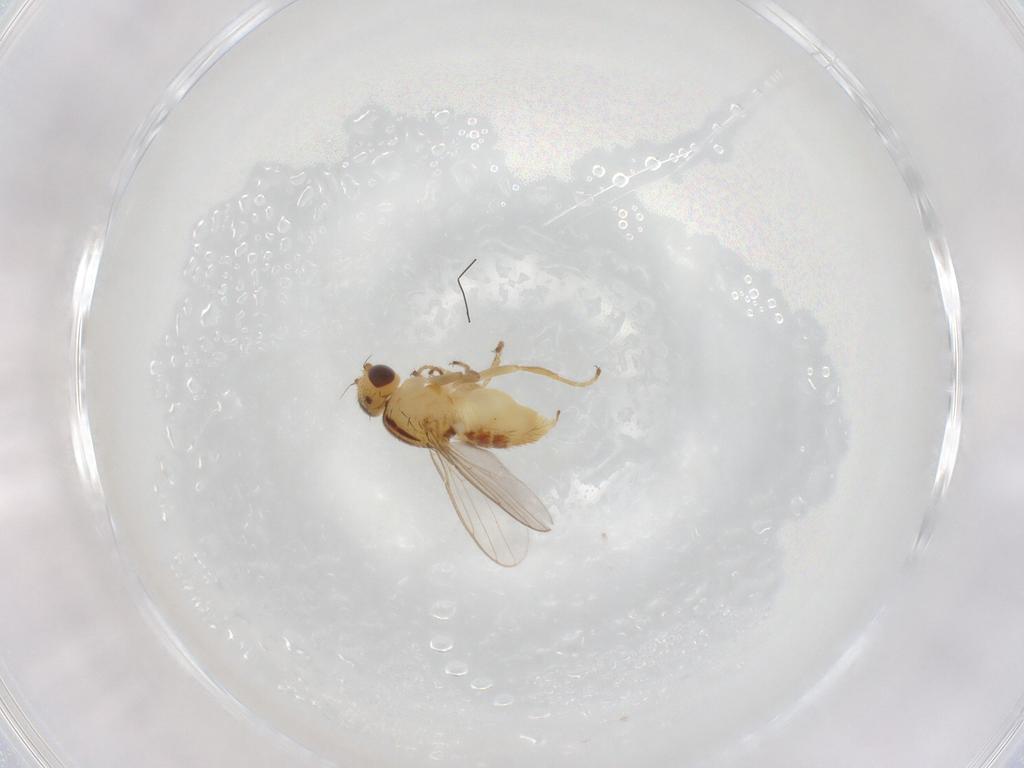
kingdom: Animalia
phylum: Arthropoda
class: Insecta
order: Diptera
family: Chloropidae
